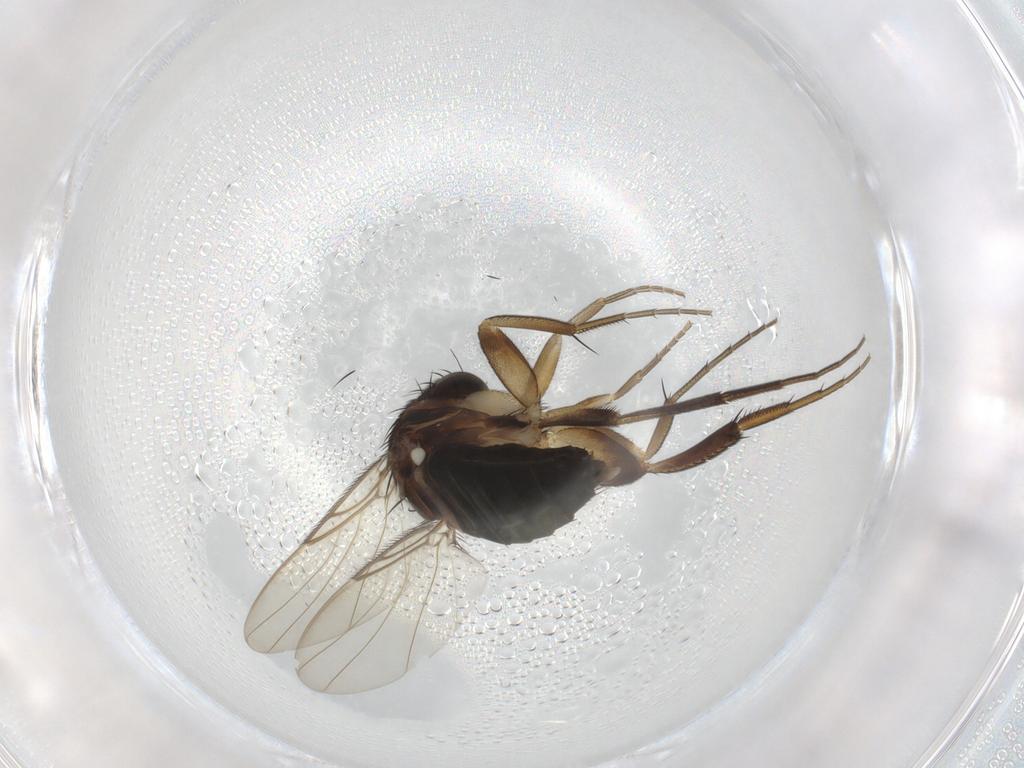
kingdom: Animalia
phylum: Arthropoda
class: Insecta
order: Diptera
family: Phoridae
